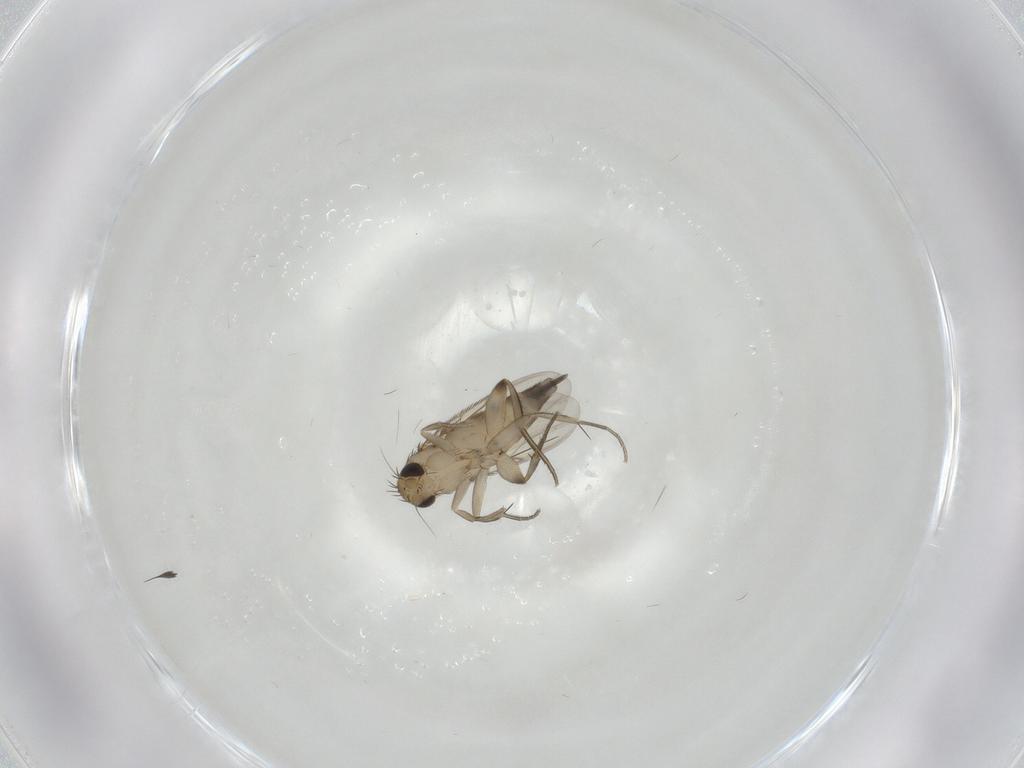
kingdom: Animalia
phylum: Arthropoda
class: Insecta
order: Diptera
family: Phoridae
